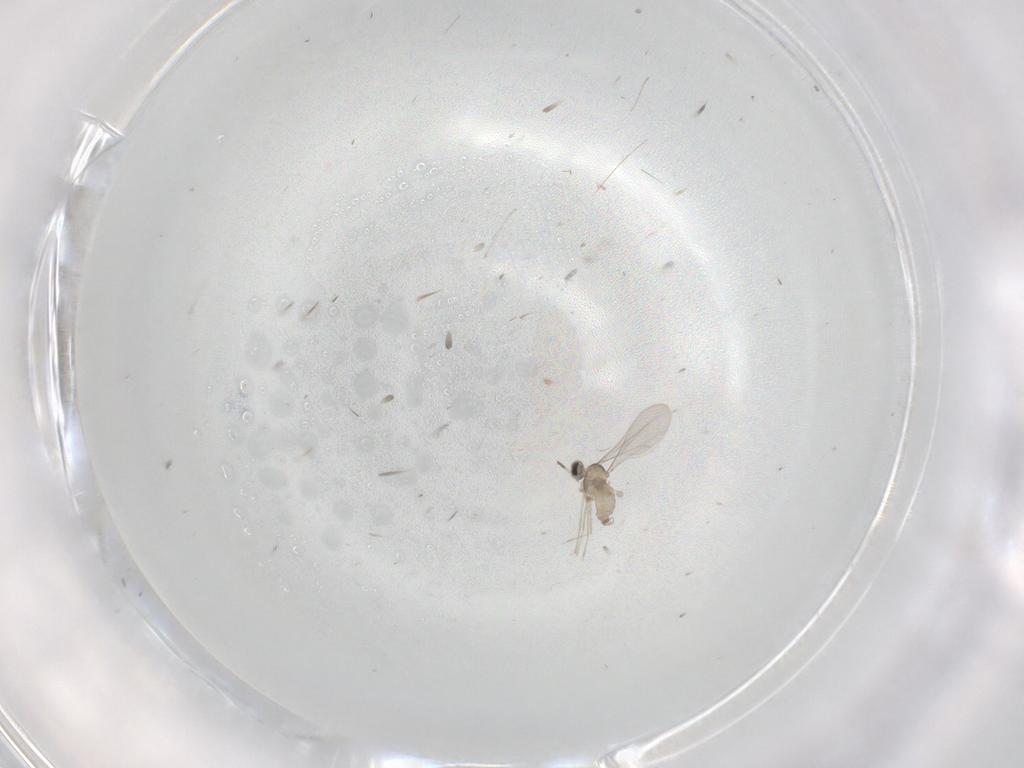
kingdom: Animalia
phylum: Arthropoda
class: Insecta
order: Diptera
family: Cecidomyiidae
